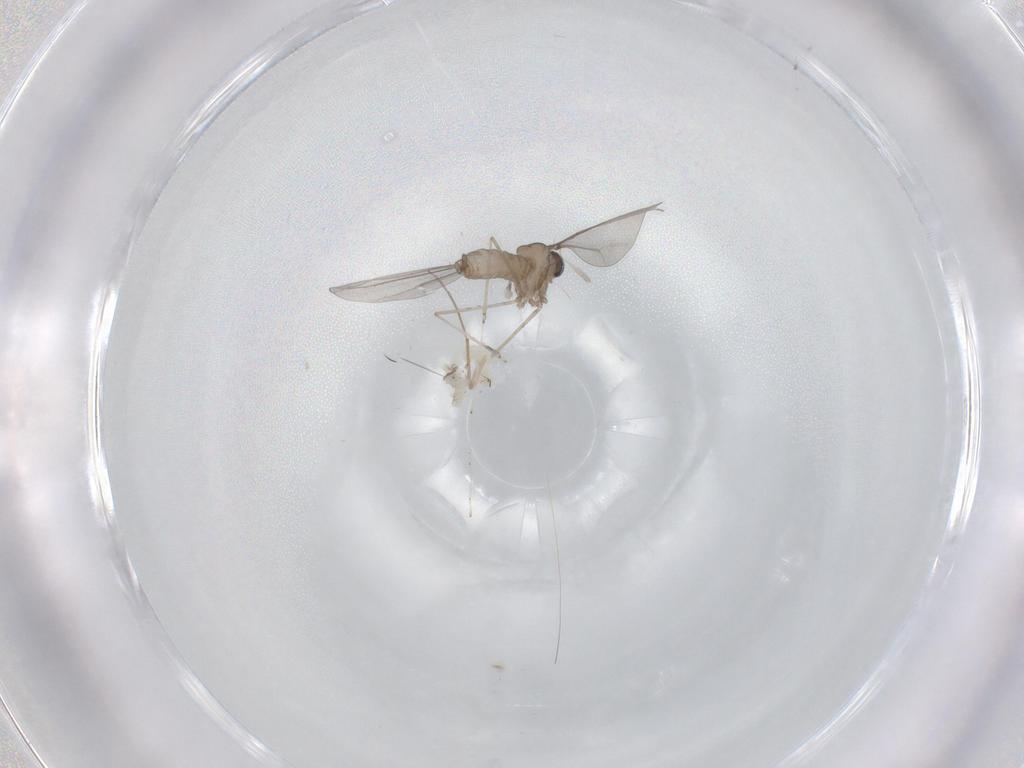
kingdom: Animalia
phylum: Arthropoda
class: Insecta
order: Diptera
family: Cecidomyiidae
